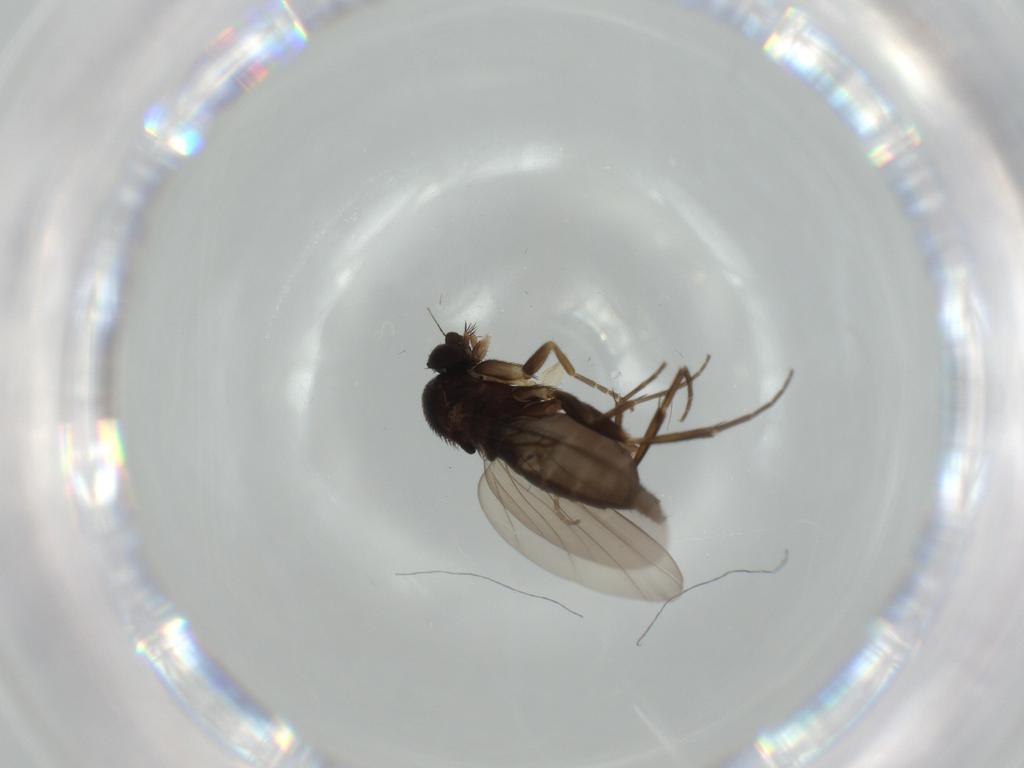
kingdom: Animalia
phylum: Arthropoda
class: Insecta
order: Diptera
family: Phoridae
